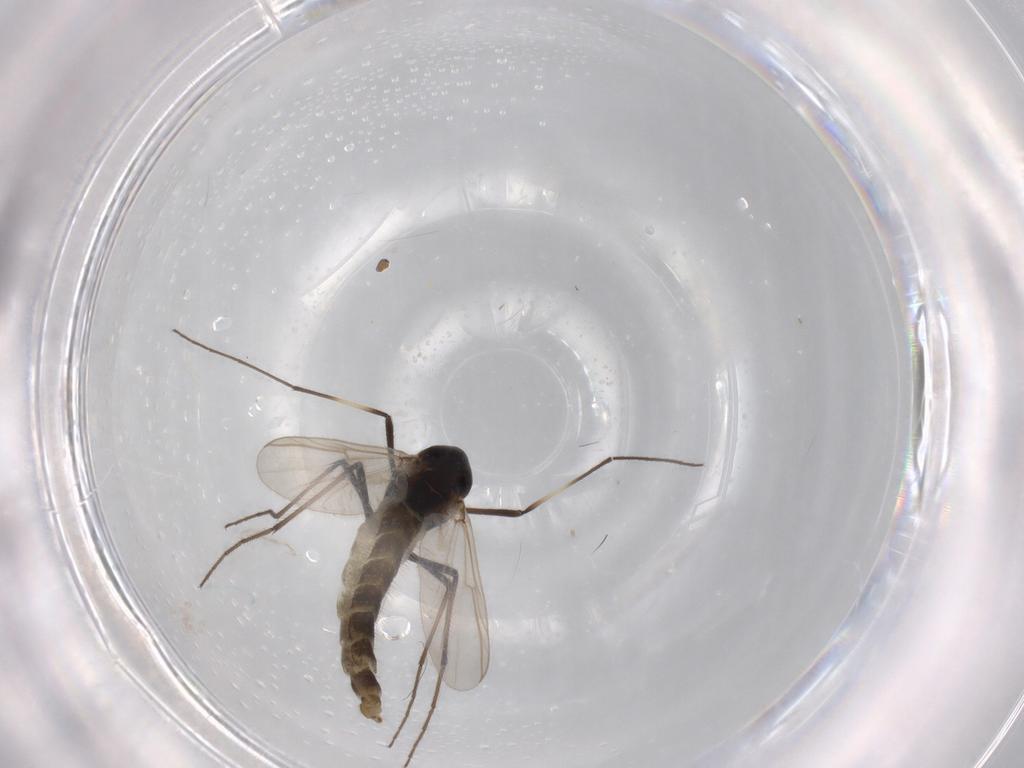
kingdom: Animalia
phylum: Arthropoda
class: Insecta
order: Diptera
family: Chironomidae
